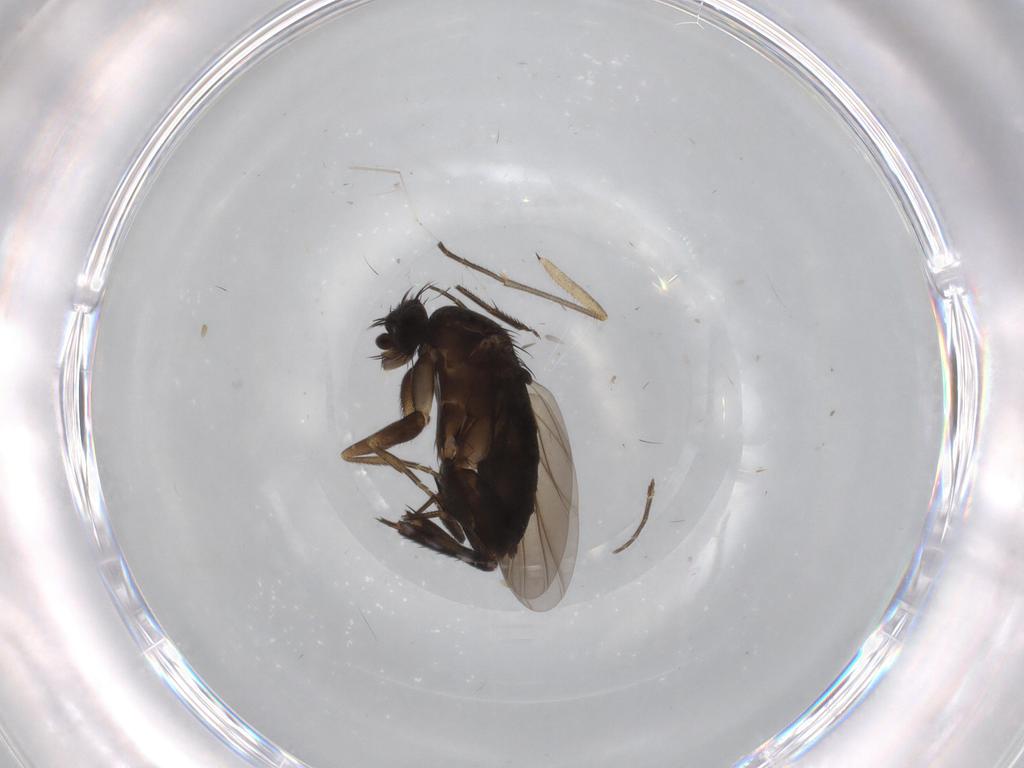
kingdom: Animalia
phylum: Arthropoda
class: Insecta
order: Diptera
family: Phoridae
